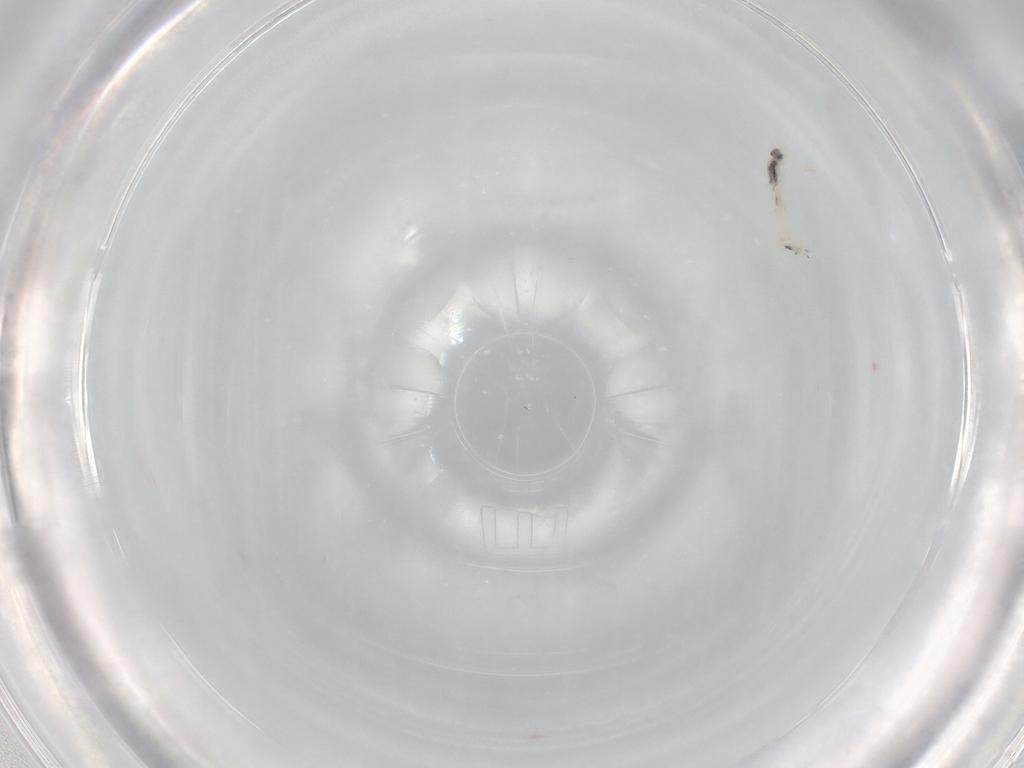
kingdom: Animalia
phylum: Arthropoda
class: Collembola
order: Entomobryomorpha
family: Entomobryidae
